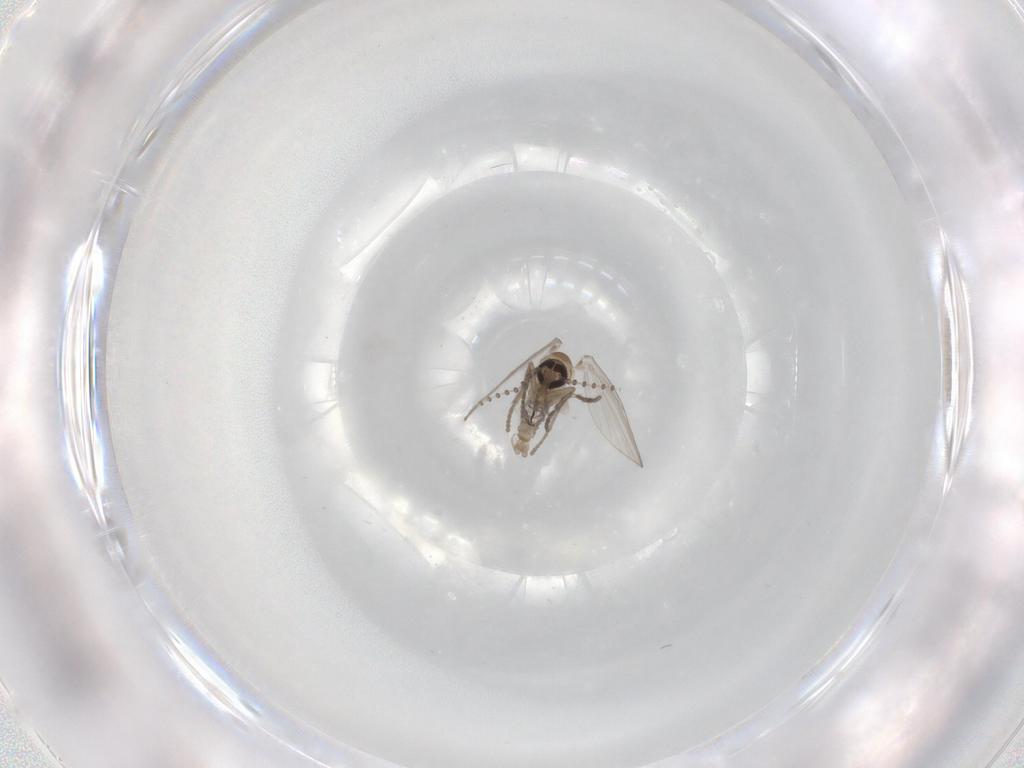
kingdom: Animalia
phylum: Arthropoda
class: Insecta
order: Diptera
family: Psychodidae
